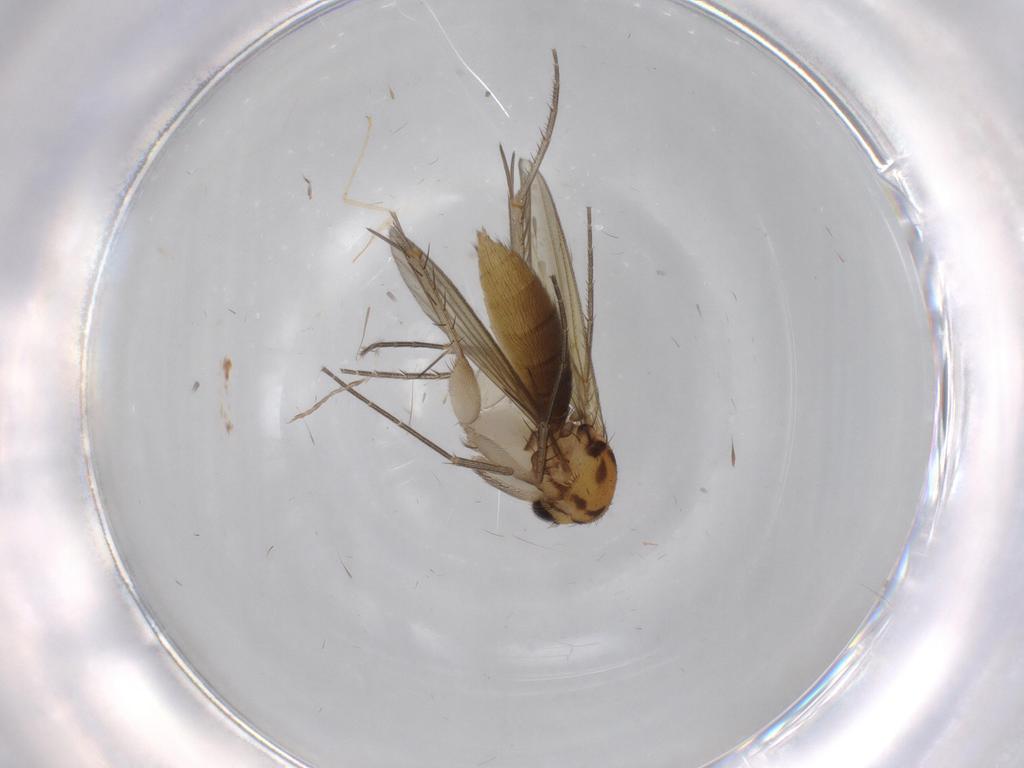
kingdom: Animalia
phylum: Arthropoda
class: Insecta
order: Diptera
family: Mycetophilidae
